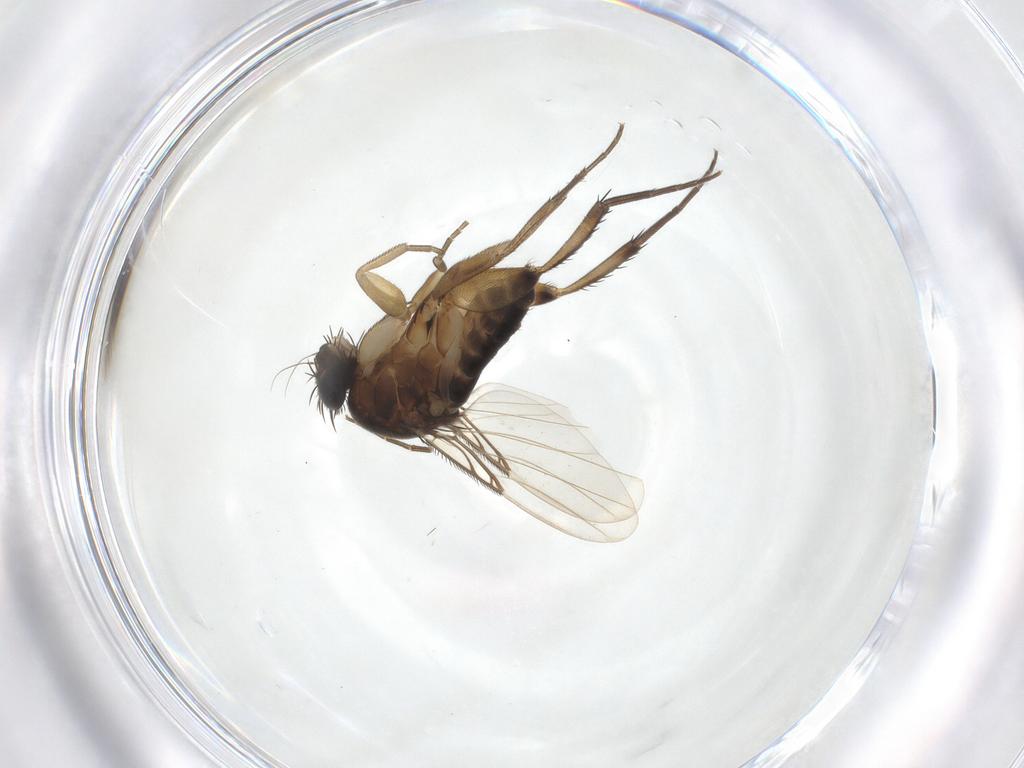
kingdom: Animalia
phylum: Arthropoda
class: Insecta
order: Diptera
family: Phoridae
